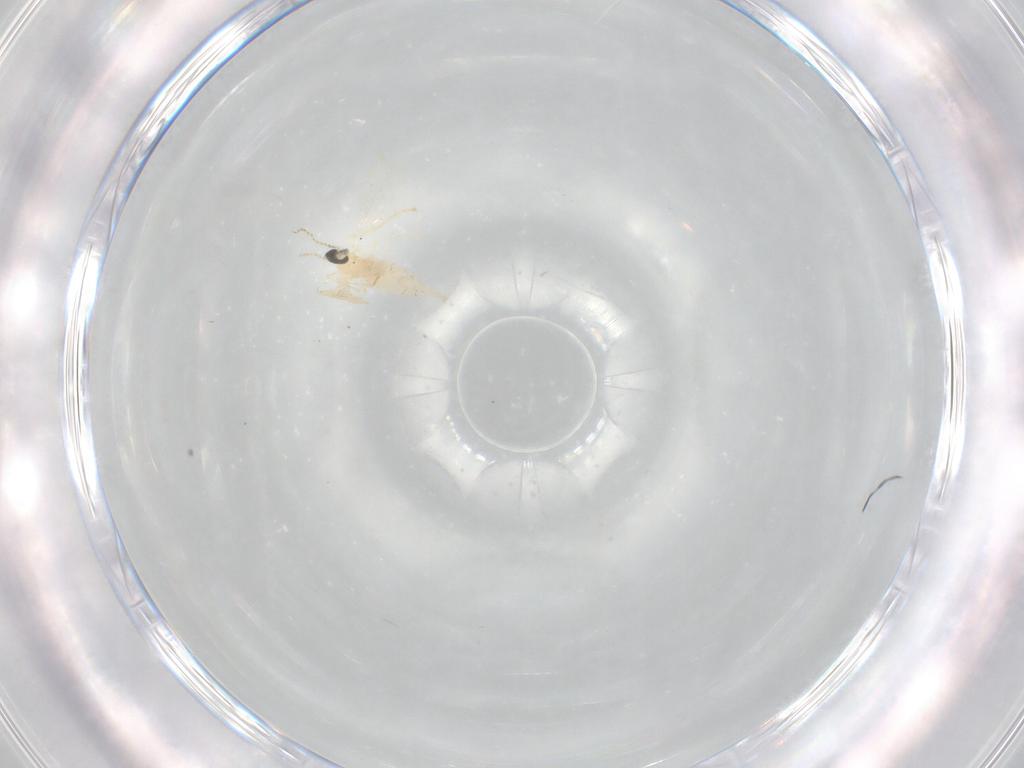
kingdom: Animalia
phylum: Arthropoda
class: Insecta
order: Diptera
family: Cecidomyiidae
